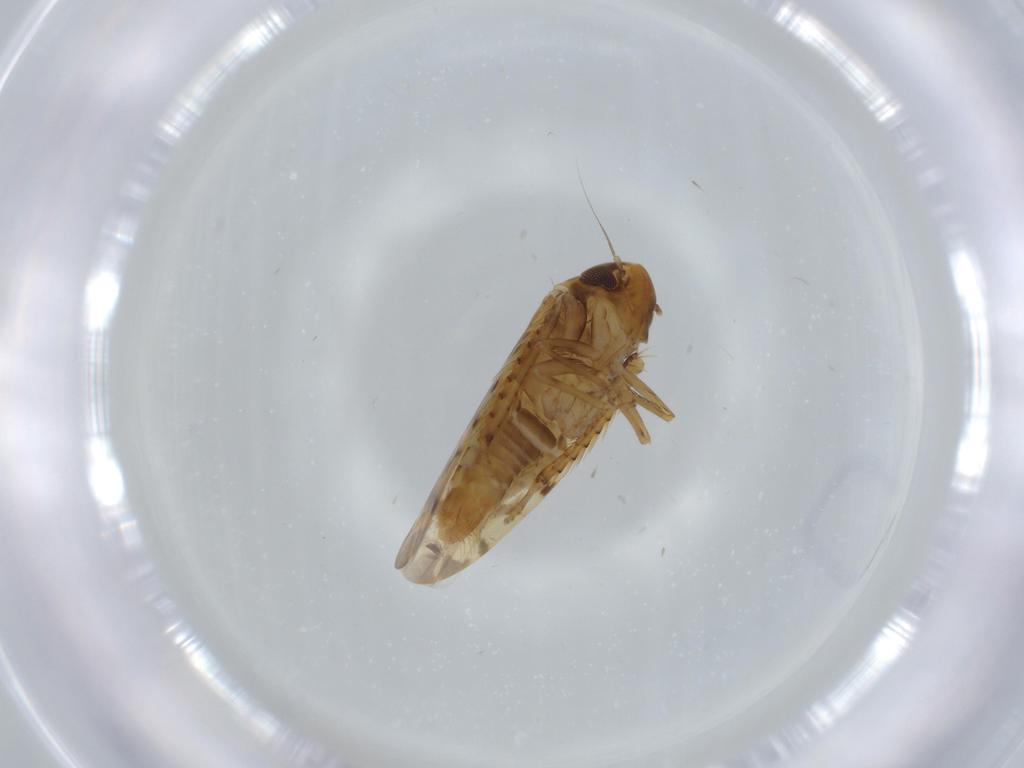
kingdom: Animalia
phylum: Arthropoda
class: Insecta
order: Hemiptera
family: Cicadellidae
